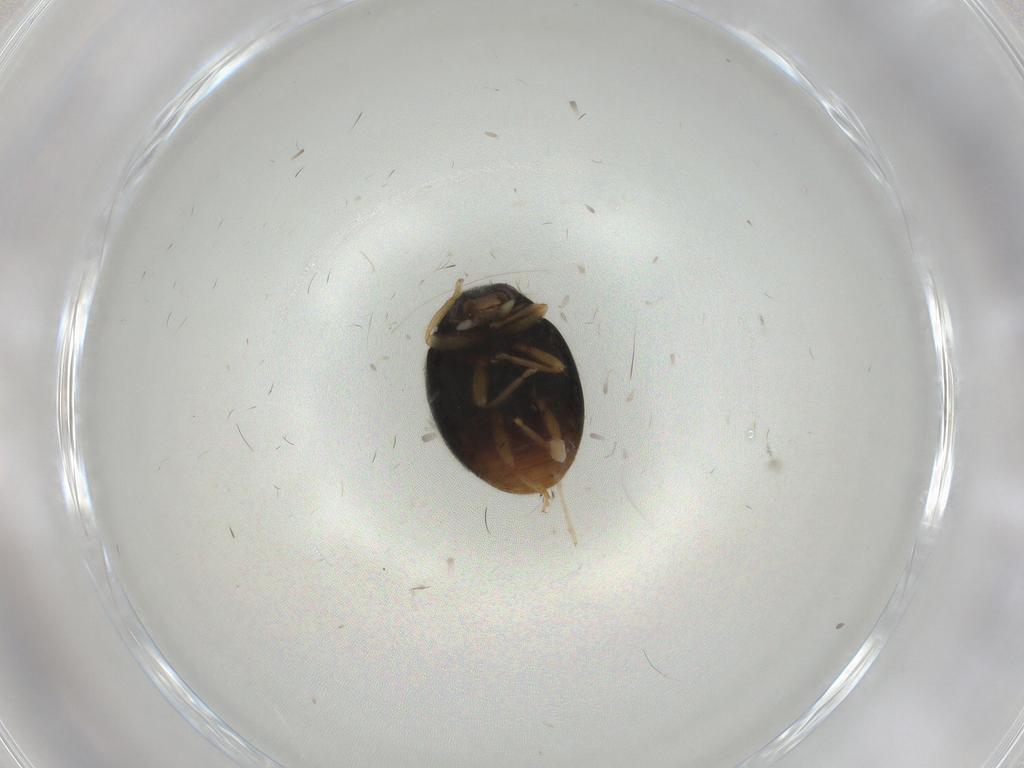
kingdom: Animalia
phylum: Arthropoda
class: Insecta
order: Coleoptera
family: Coccinellidae
